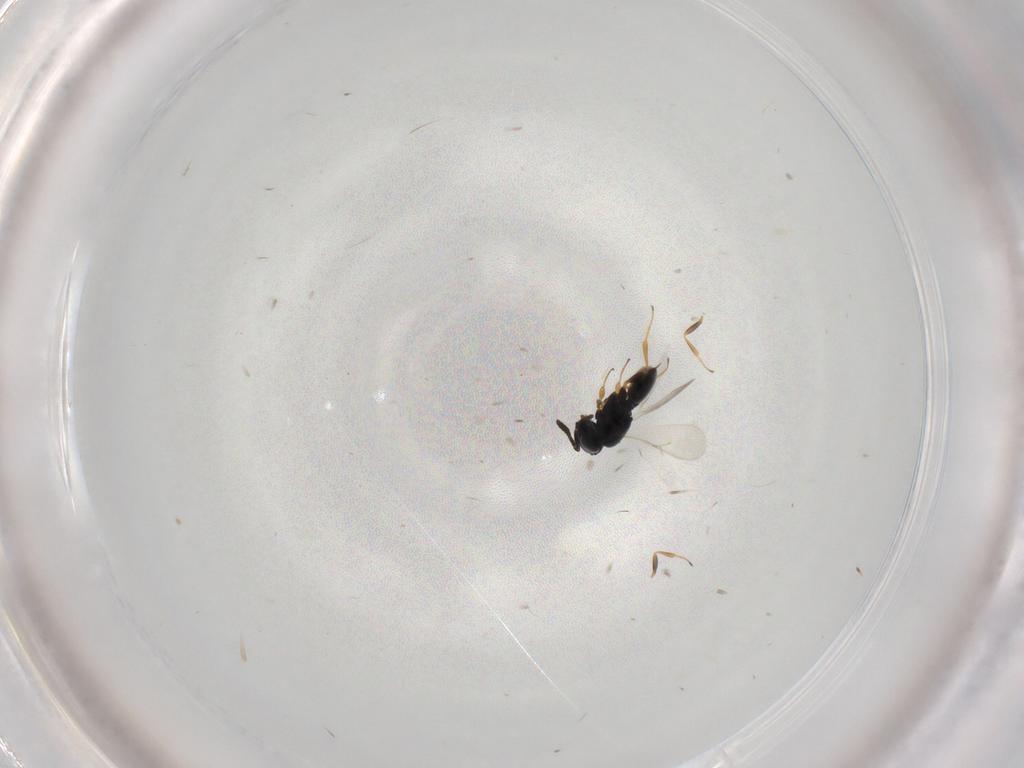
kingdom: Animalia
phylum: Arthropoda
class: Insecta
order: Hymenoptera
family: Scelionidae
